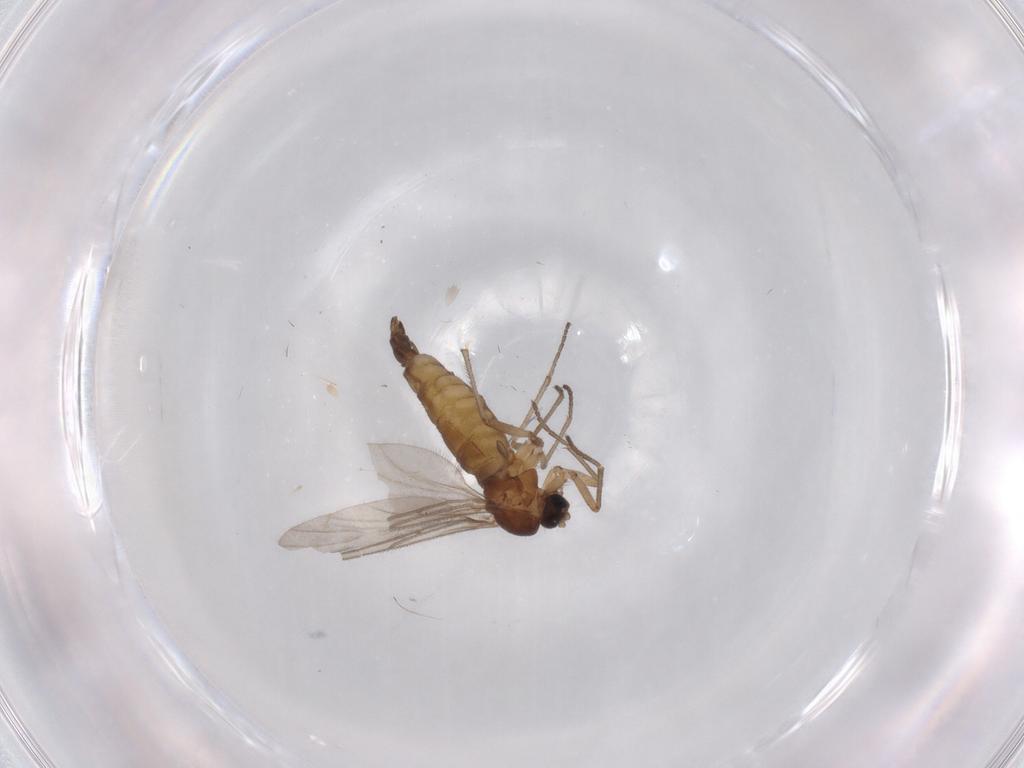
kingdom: Animalia
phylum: Arthropoda
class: Insecta
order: Diptera
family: Sciaridae
